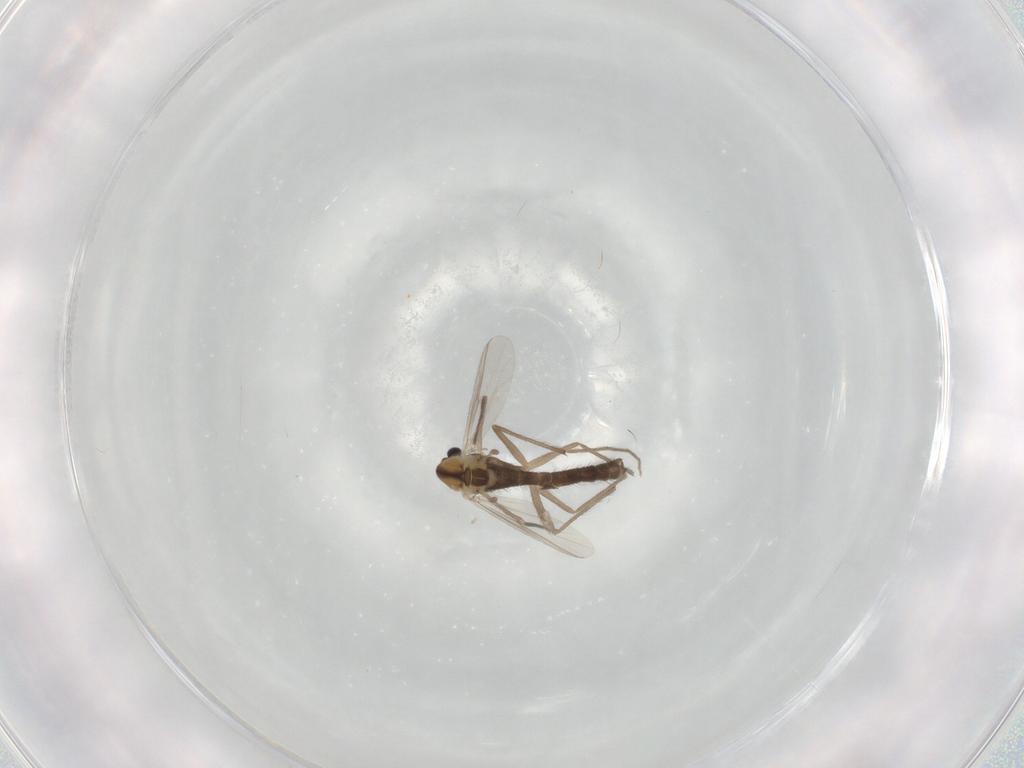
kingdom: Animalia
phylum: Arthropoda
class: Insecta
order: Diptera
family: Chironomidae
